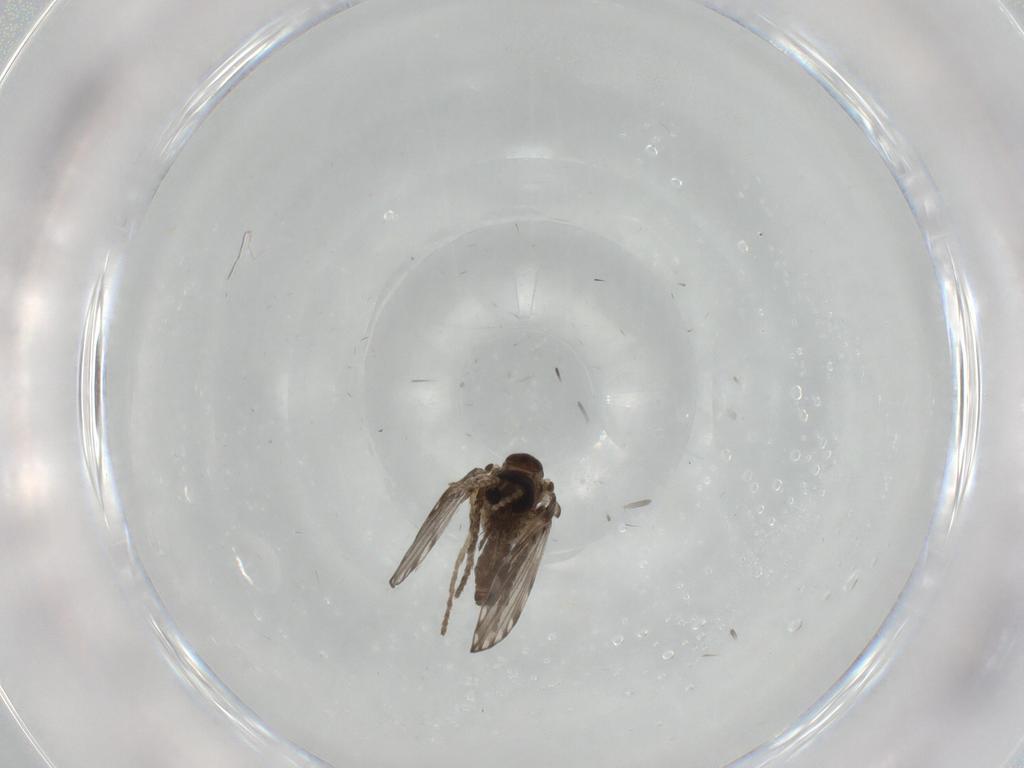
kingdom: Animalia
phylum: Arthropoda
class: Insecta
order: Diptera
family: Psychodidae
